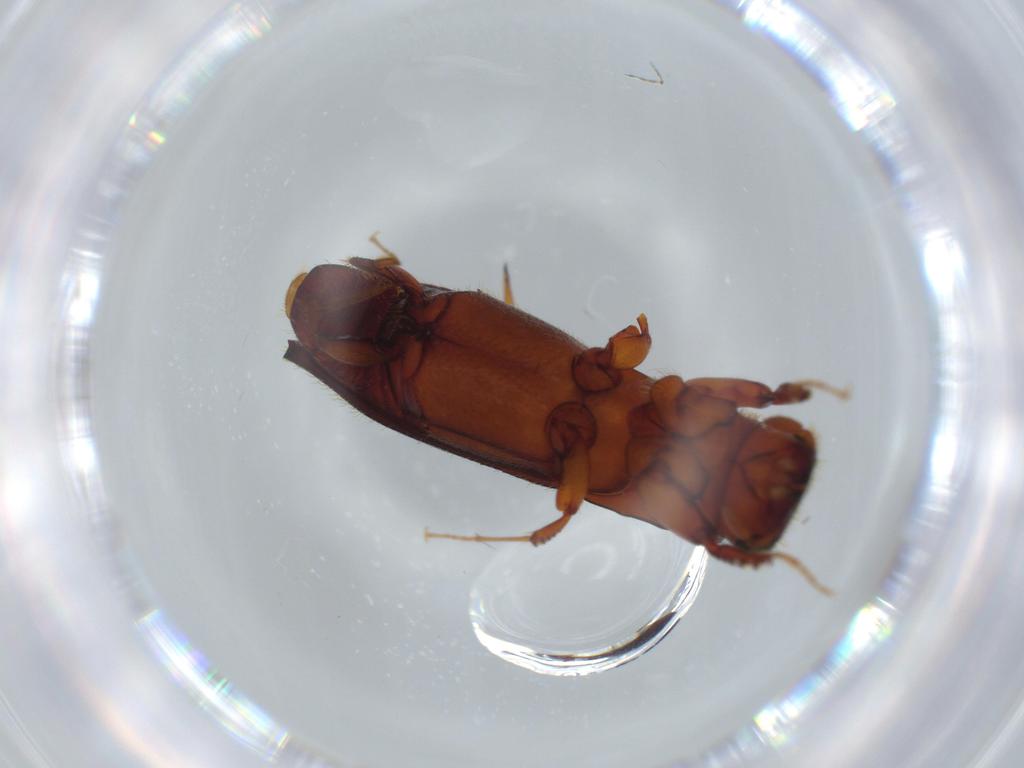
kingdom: Animalia
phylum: Arthropoda
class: Insecta
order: Coleoptera
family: Curculionidae
